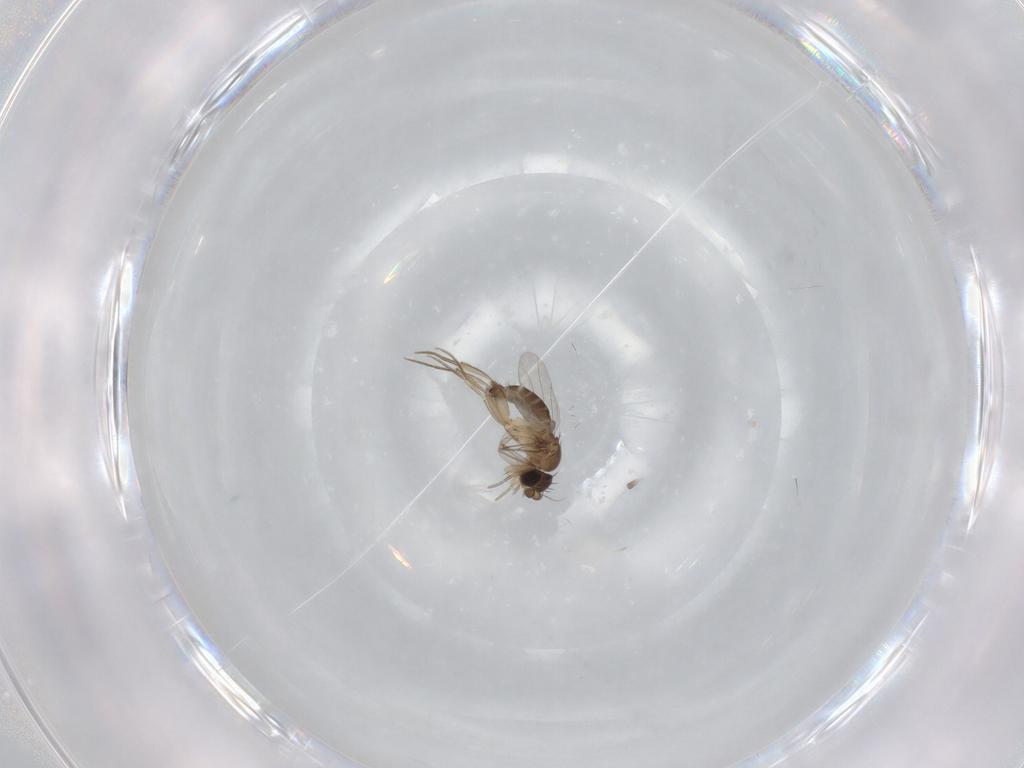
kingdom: Animalia
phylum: Arthropoda
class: Insecta
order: Diptera
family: Phoridae
